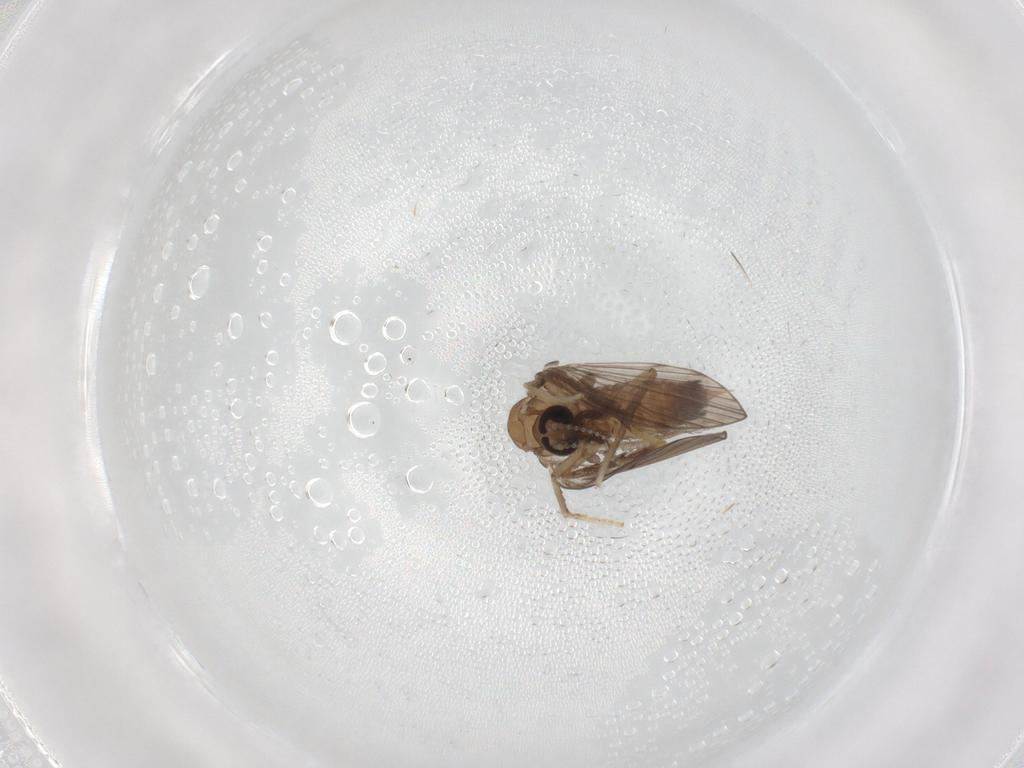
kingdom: Animalia
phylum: Arthropoda
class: Insecta
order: Diptera
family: Psychodidae
